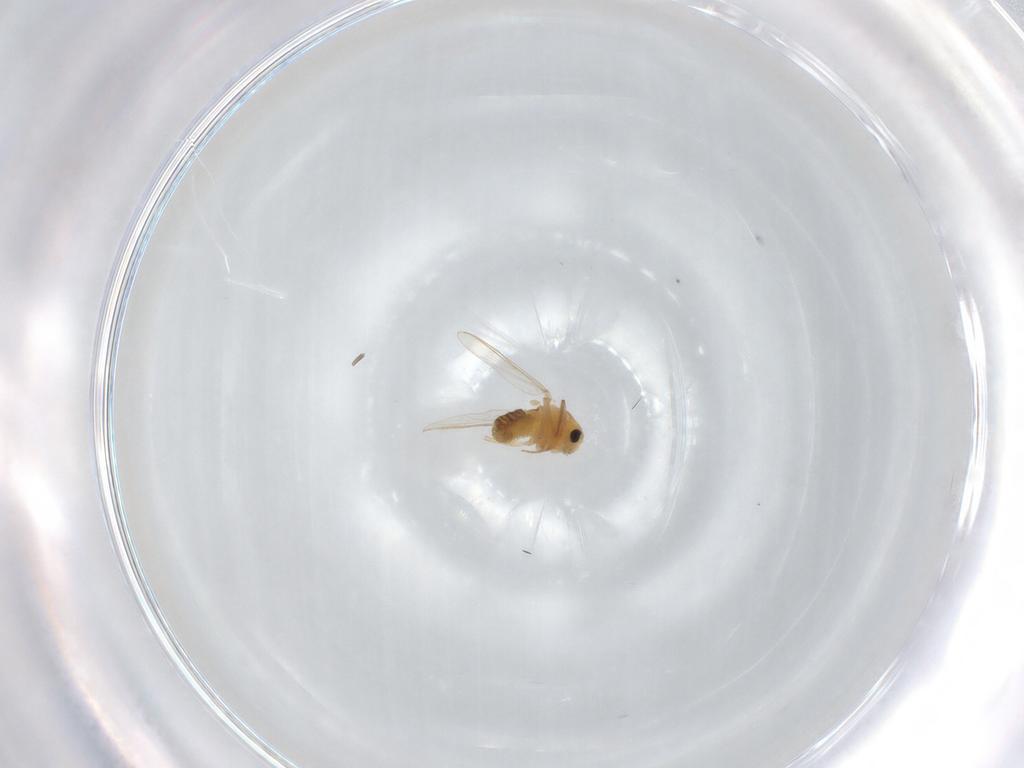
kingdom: Animalia
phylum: Arthropoda
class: Insecta
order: Diptera
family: Chironomidae
